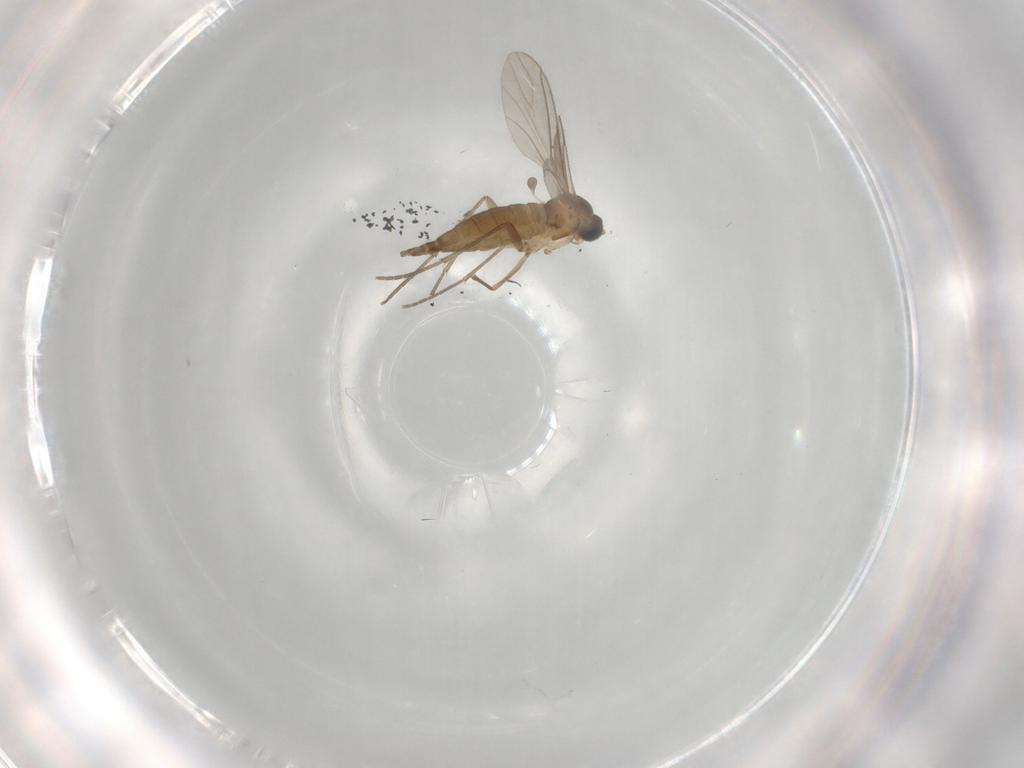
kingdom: Animalia
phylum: Arthropoda
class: Insecta
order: Diptera
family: Sciaridae
